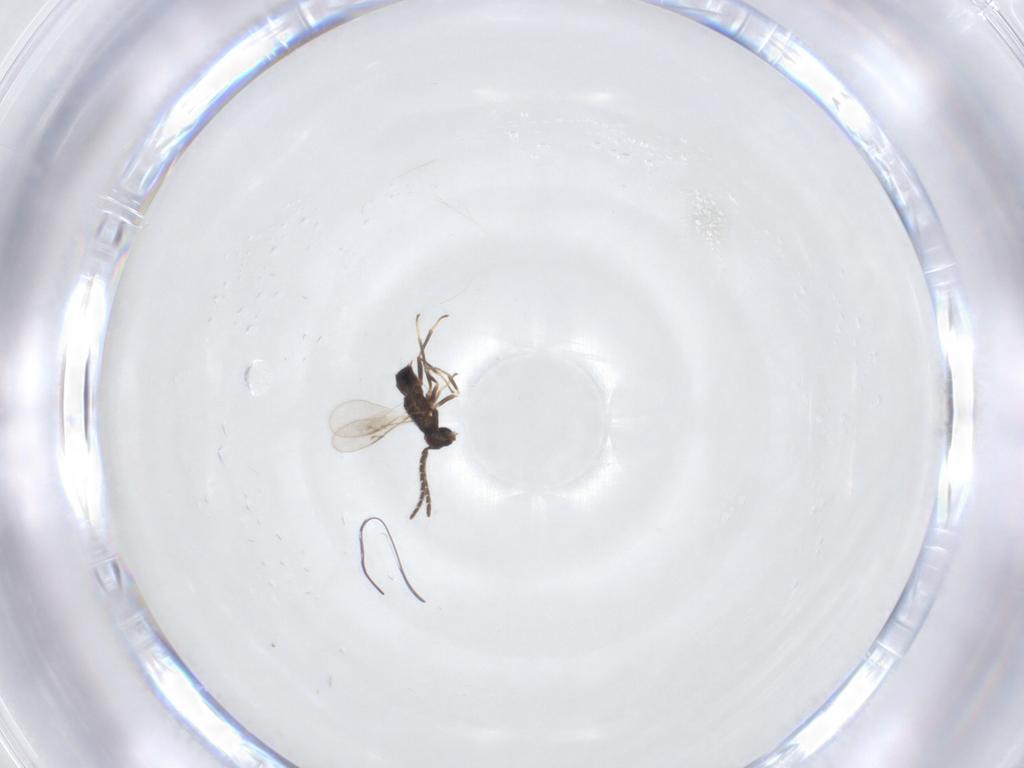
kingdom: Animalia
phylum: Arthropoda
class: Insecta
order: Hymenoptera
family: Encyrtidae
